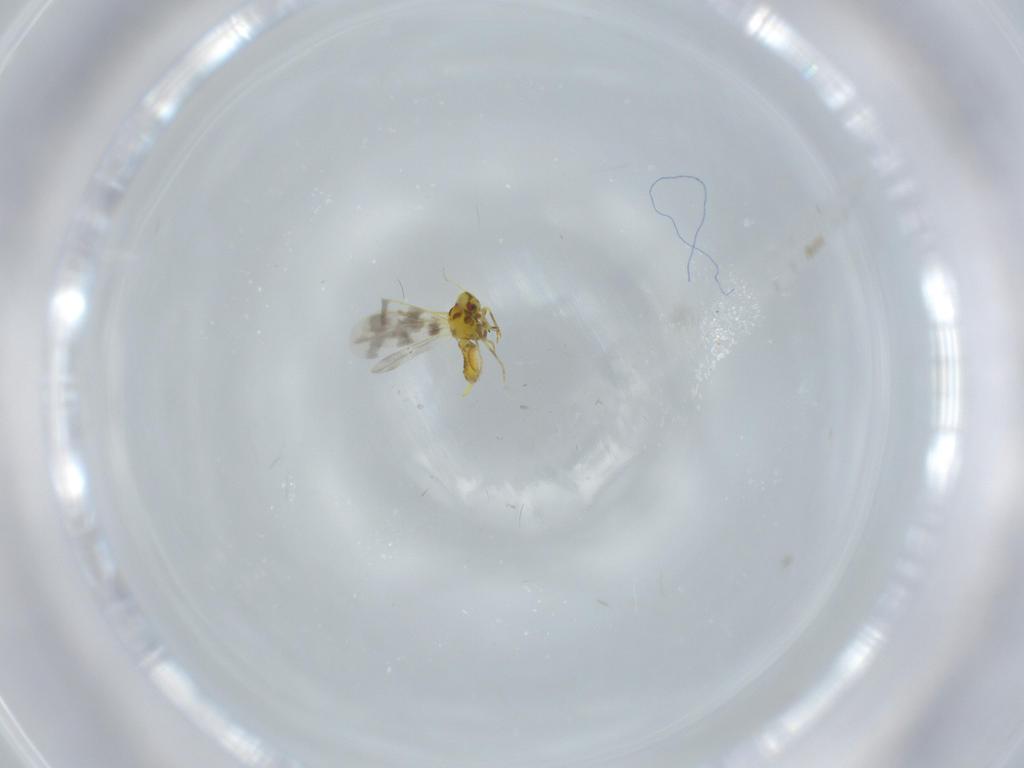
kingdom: Animalia
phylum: Arthropoda
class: Insecta
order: Hemiptera
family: Aleyrodidae
